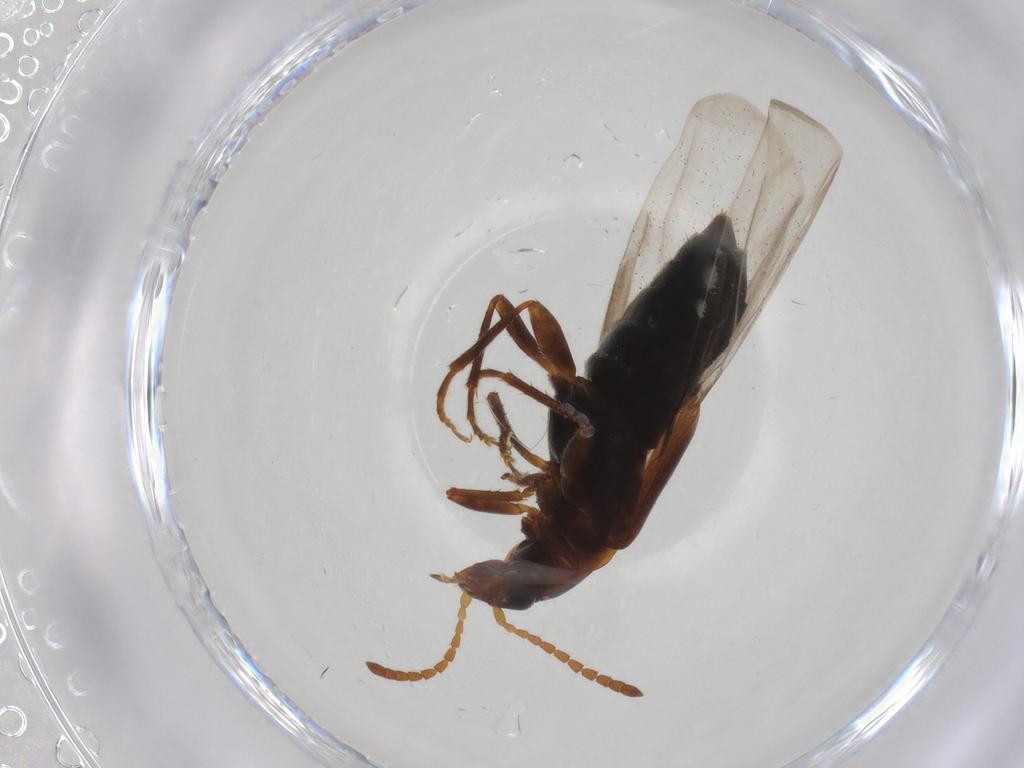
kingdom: Animalia
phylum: Arthropoda
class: Insecta
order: Coleoptera
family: Staphylinidae
